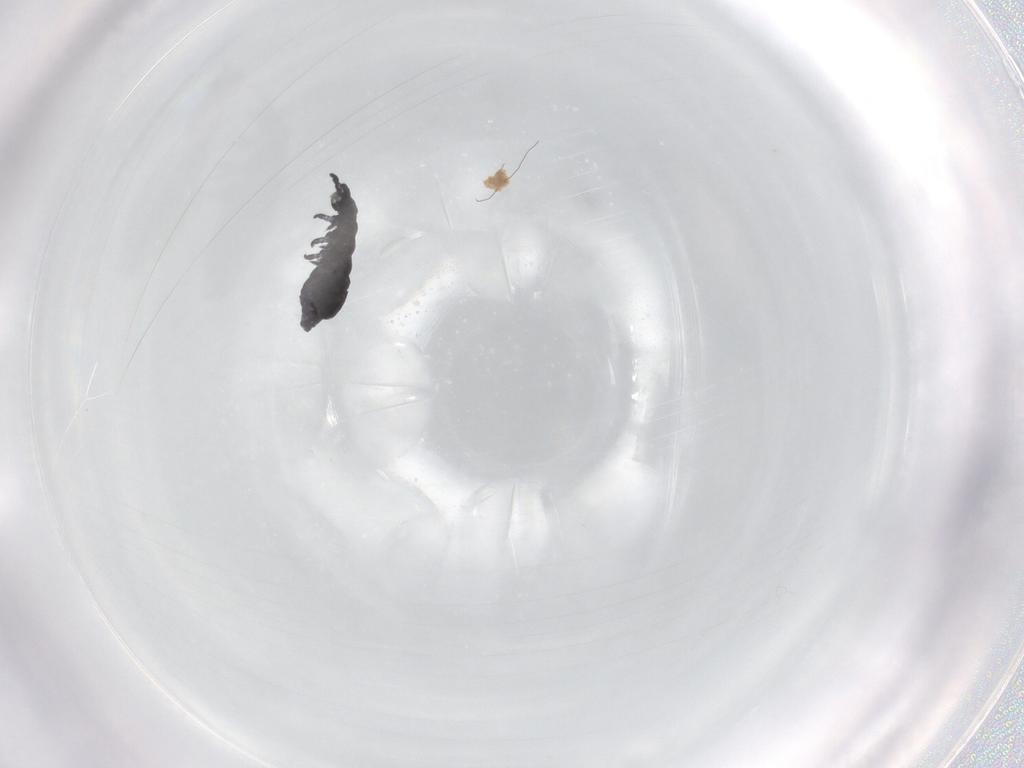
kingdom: Animalia
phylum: Arthropoda
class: Collembola
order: Poduromorpha
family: Hypogastruridae
